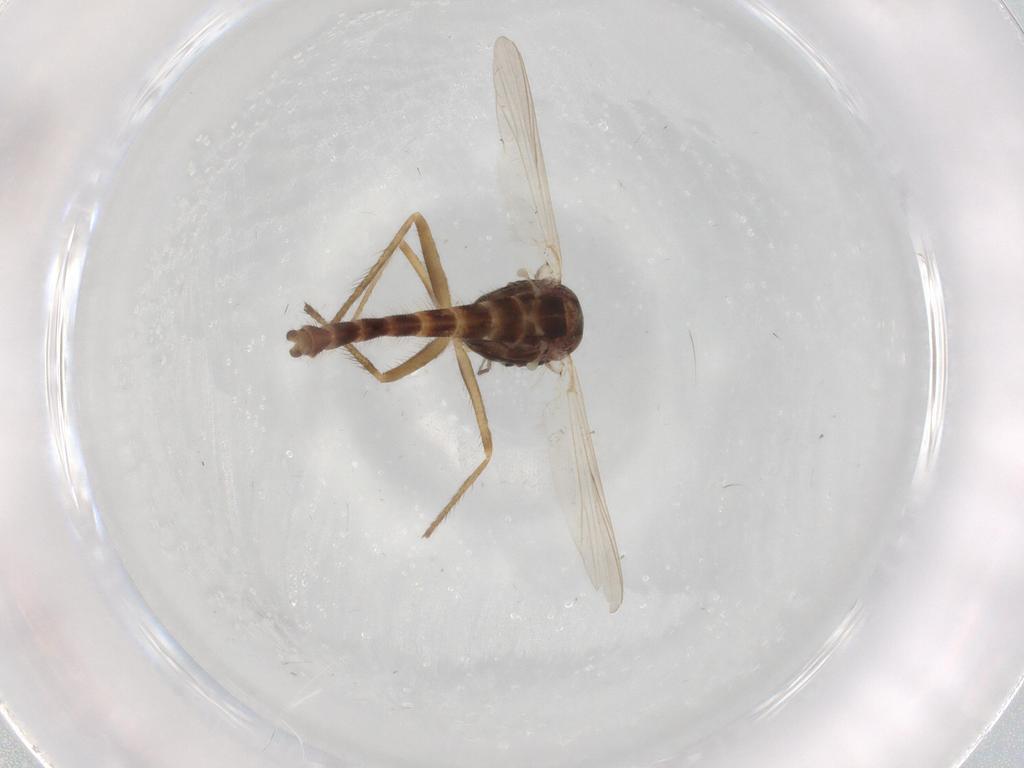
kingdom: Animalia
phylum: Arthropoda
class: Insecta
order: Diptera
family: Chironomidae
